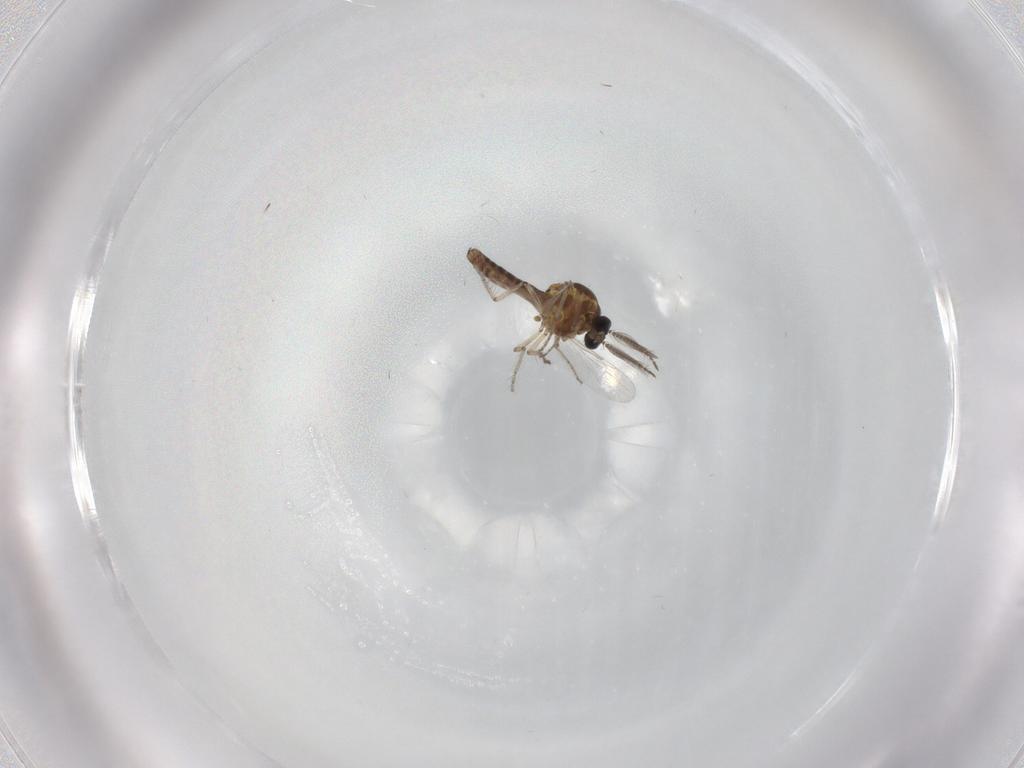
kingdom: Animalia
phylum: Arthropoda
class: Insecta
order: Diptera
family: Ceratopogonidae
